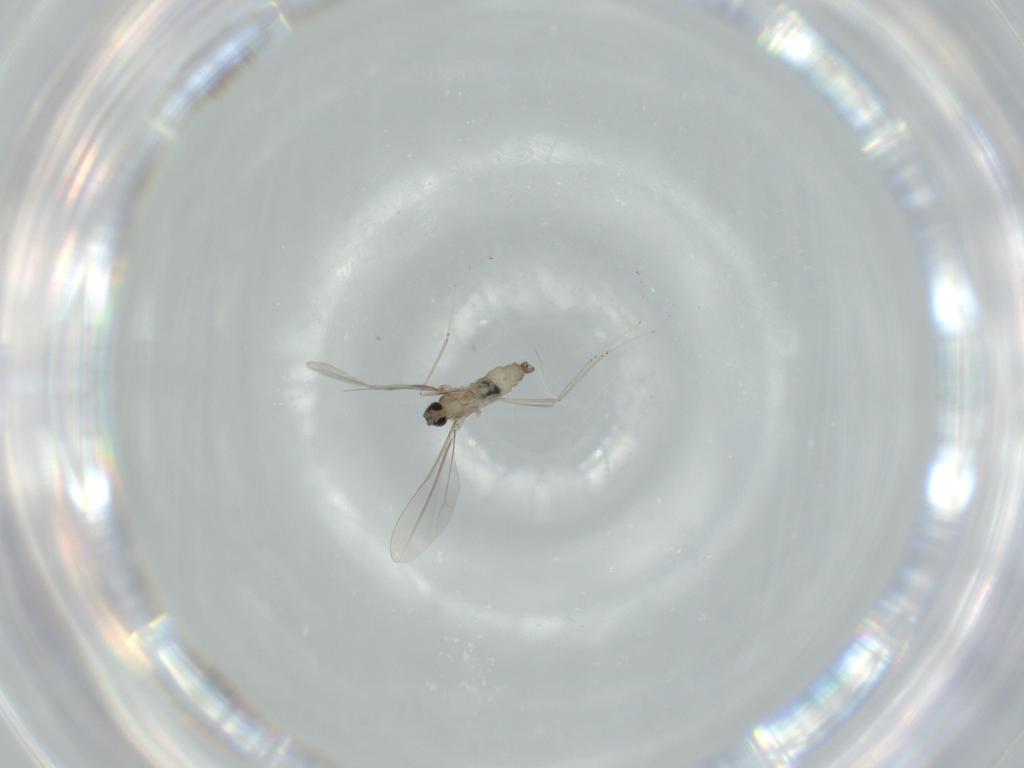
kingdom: Animalia
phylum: Arthropoda
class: Insecta
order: Diptera
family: Cecidomyiidae
